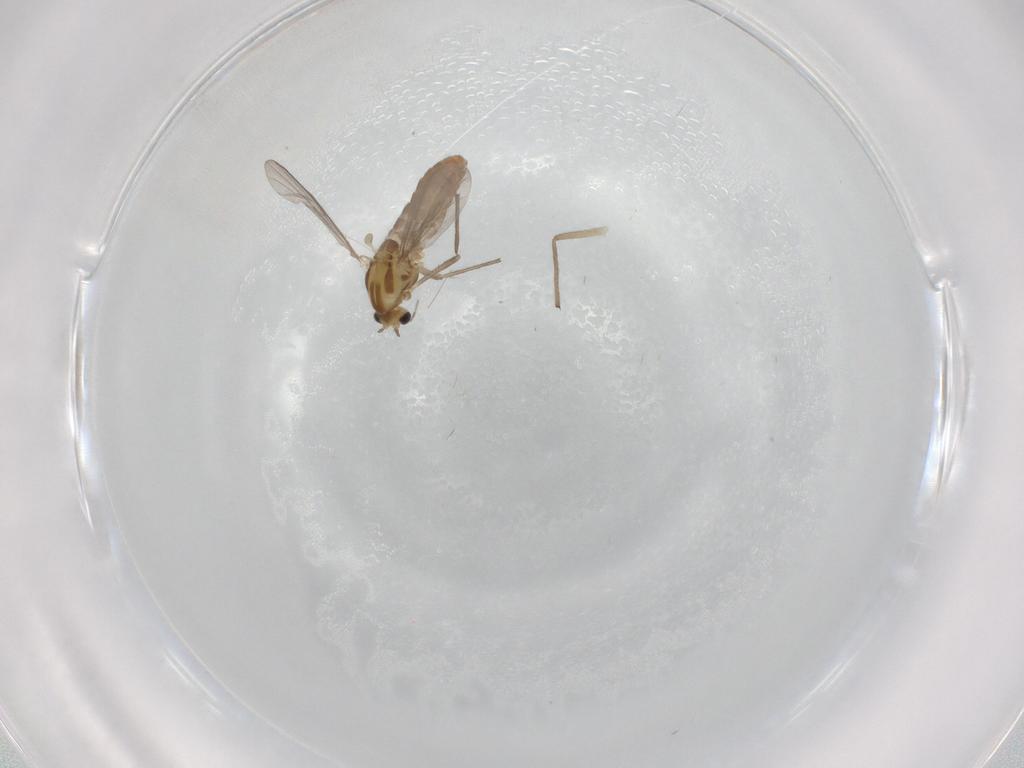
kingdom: Animalia
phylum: Arthropoda
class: Insecta
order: Diptera
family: Chironomidae
